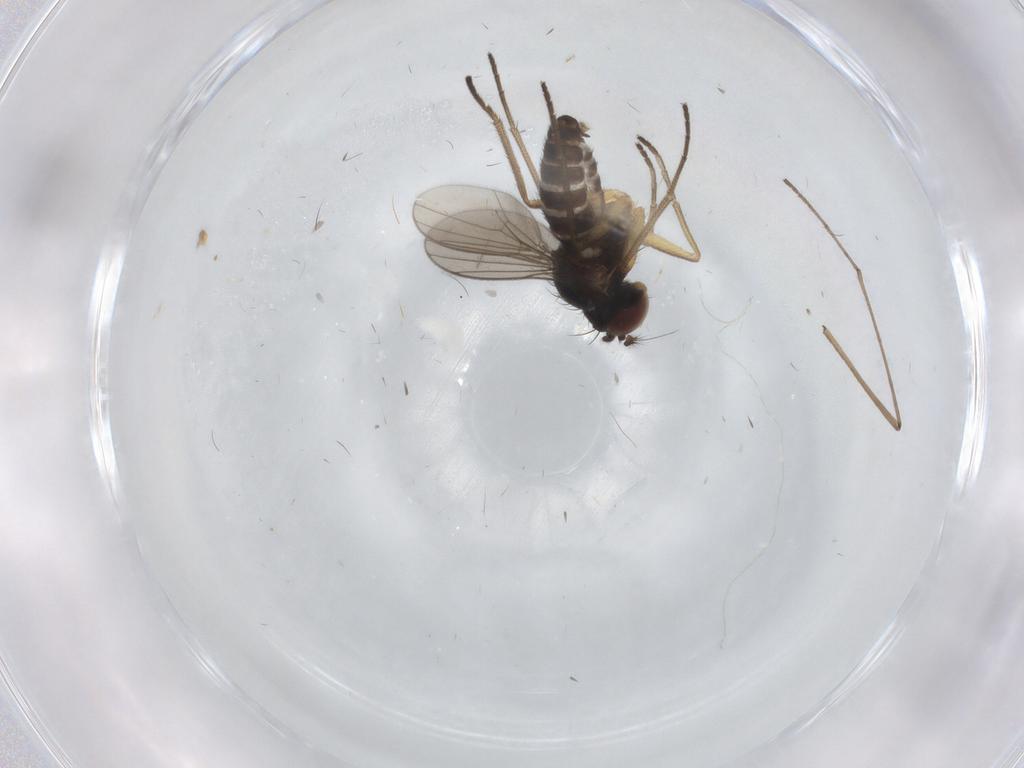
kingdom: Animalia
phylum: Arthropoda
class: Insecta
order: Diptera
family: Dolichopodidae
